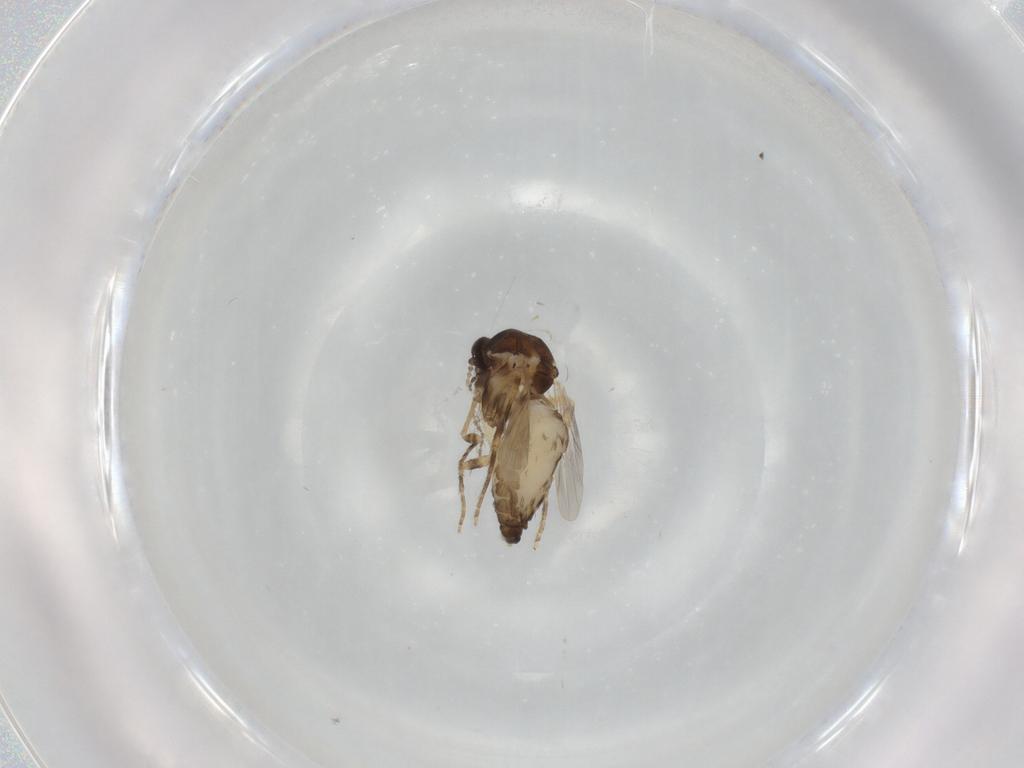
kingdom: Animalia
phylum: Arthropoda
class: Insecta
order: Diptera
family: Ceratopogonidae
